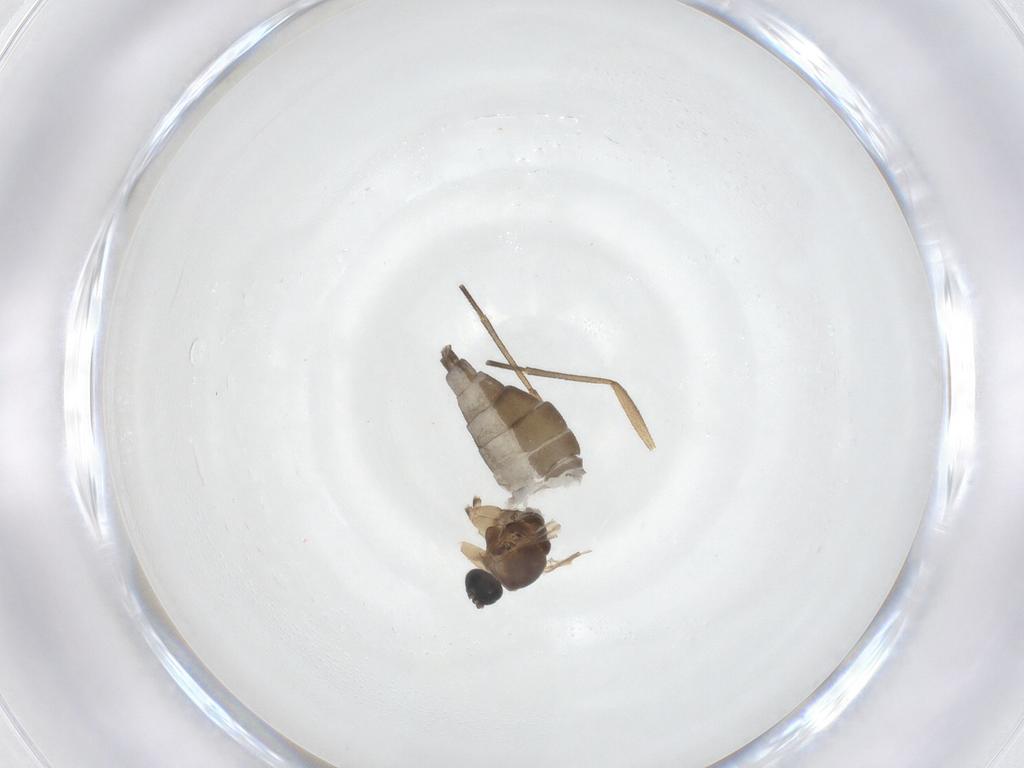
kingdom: Animalia
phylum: Arthropoda
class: Insecta
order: Diptera
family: Sciaridae
